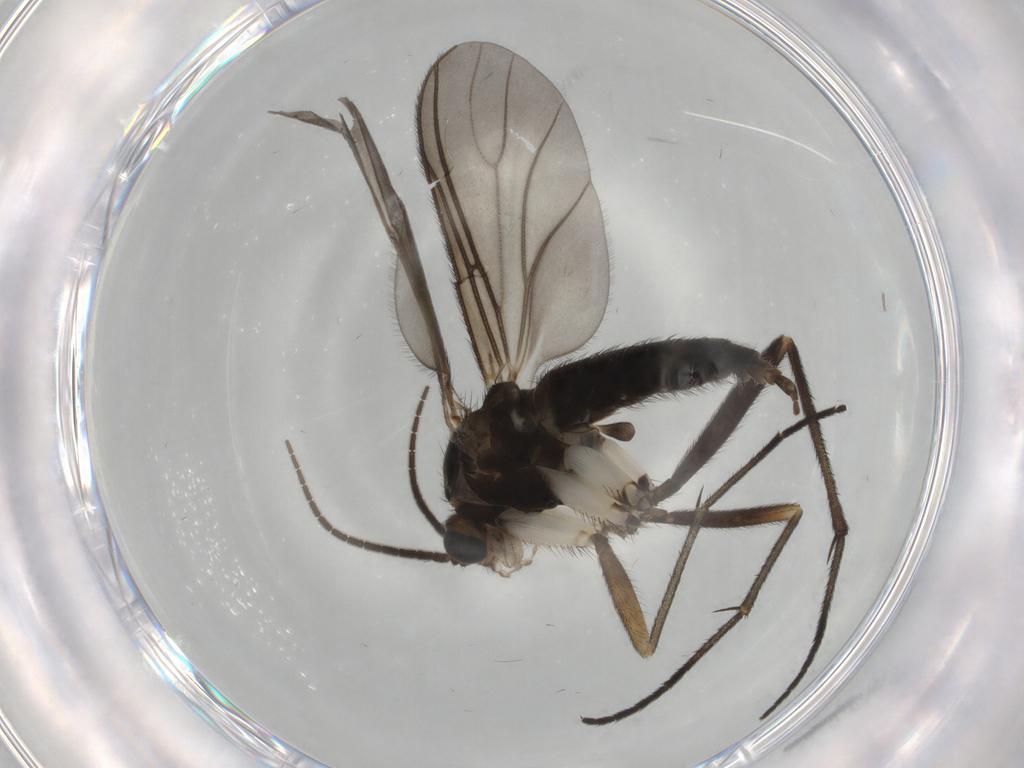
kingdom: Animalia
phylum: Arthropoda
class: Insecta
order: Diptera
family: Sciaridae
